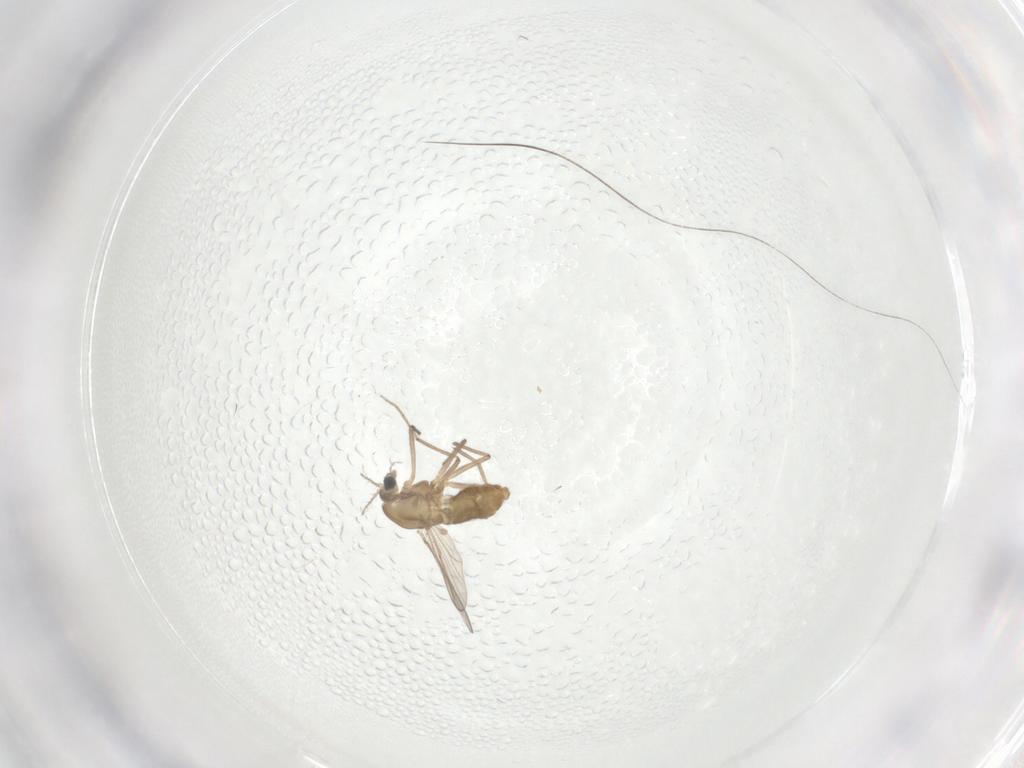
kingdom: Animalia
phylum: Arthropoda
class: Insecta
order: Diptera
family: Chironomidae
